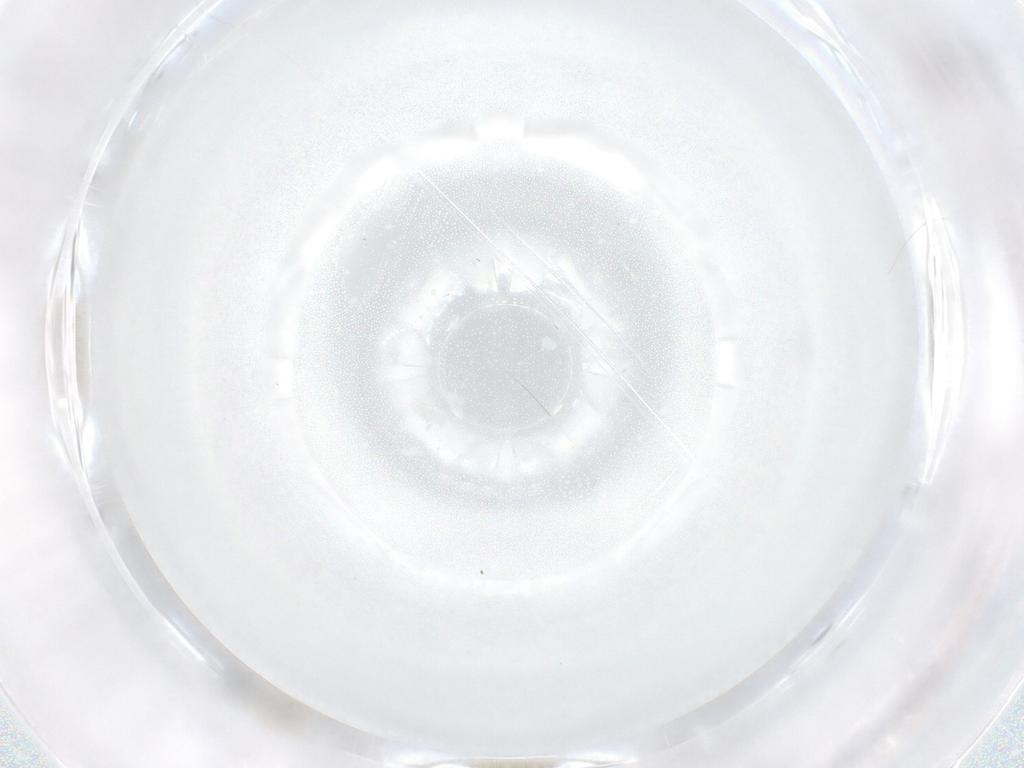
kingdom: Animalia
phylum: Arthropoda
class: Insecta
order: Diptera
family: Cecidomyiidae
